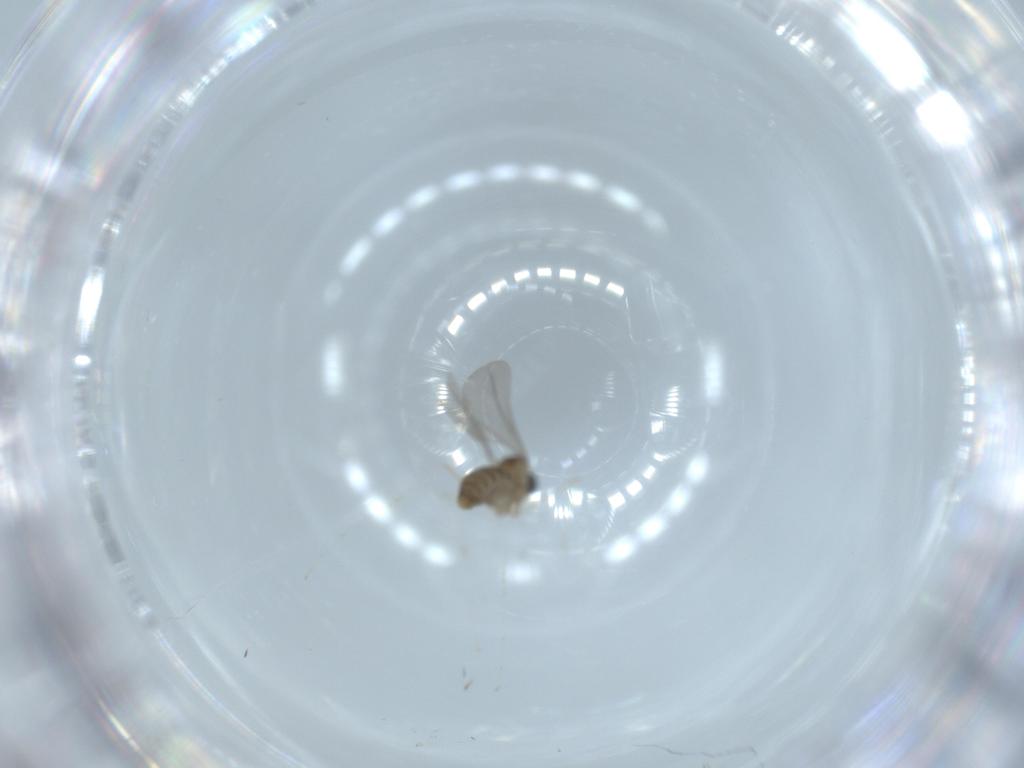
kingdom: Animalia
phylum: Arthropoda
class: Insecta
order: Diptera
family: Cecidomyiidae
